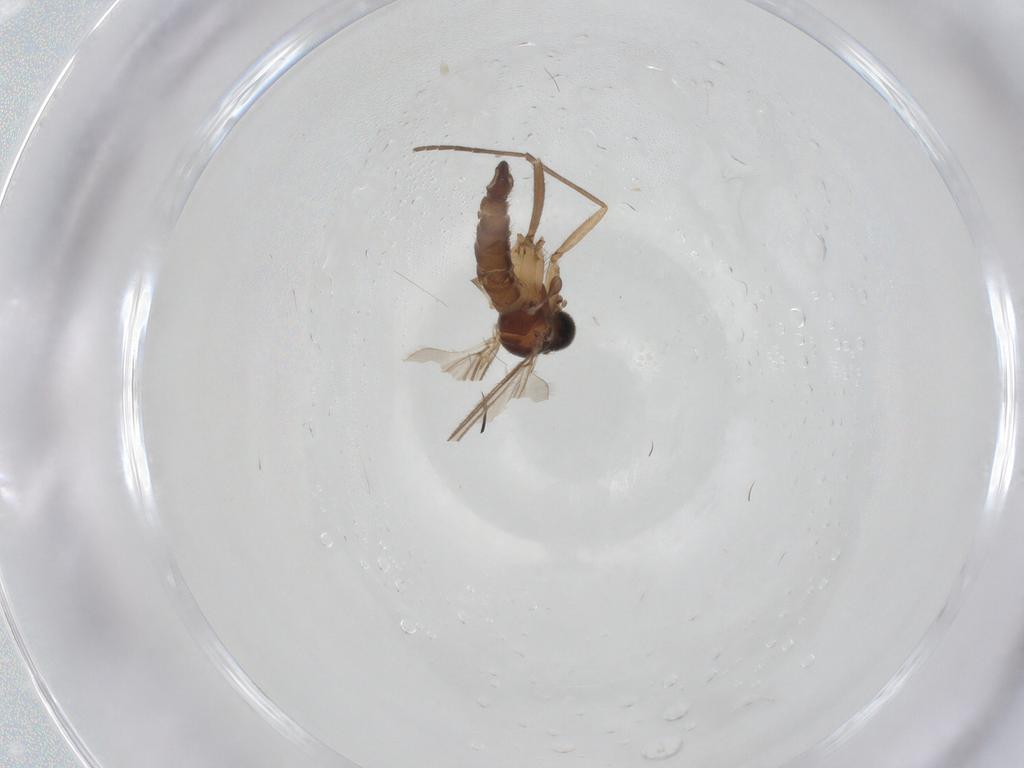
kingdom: Animalia
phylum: Arthropoda
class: Insecta
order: Diptera
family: Sciaridae
